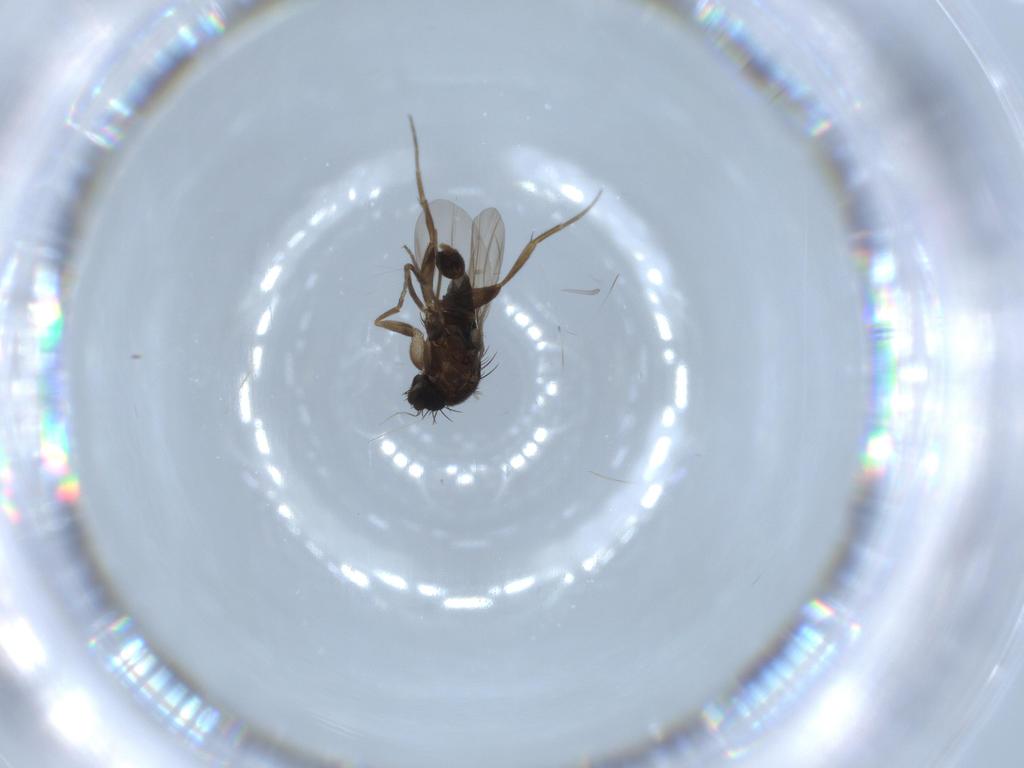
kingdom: Animalia
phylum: Arthropoda
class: Insecta
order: Diptera
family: Phoridae
